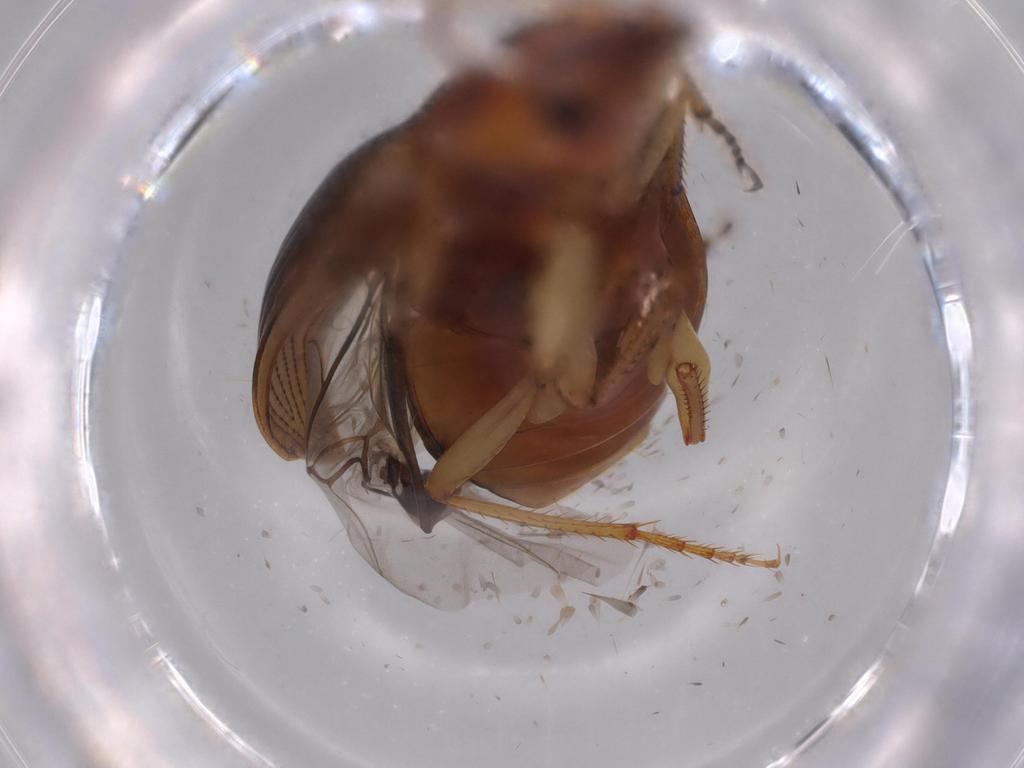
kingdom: Animalia
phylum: Arthropoda
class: Insecta
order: Coleoptera
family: Carabidae
